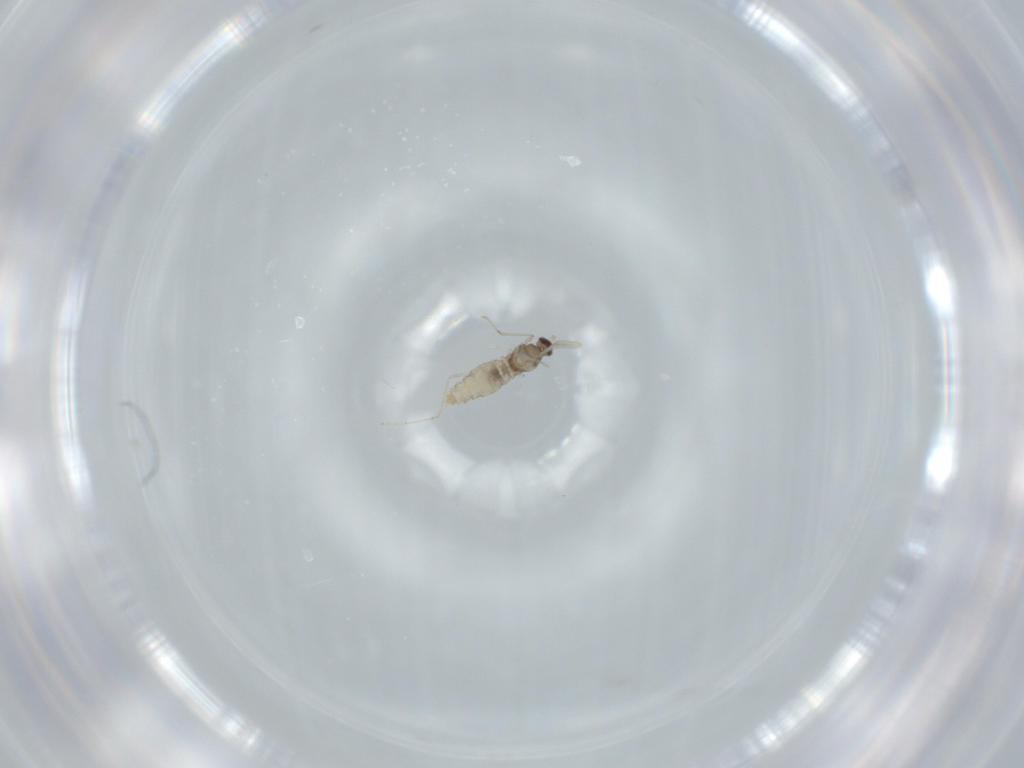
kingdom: Animalia
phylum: Arthropoda
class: Insecta
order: Diptera
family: Cecidomyiidae
